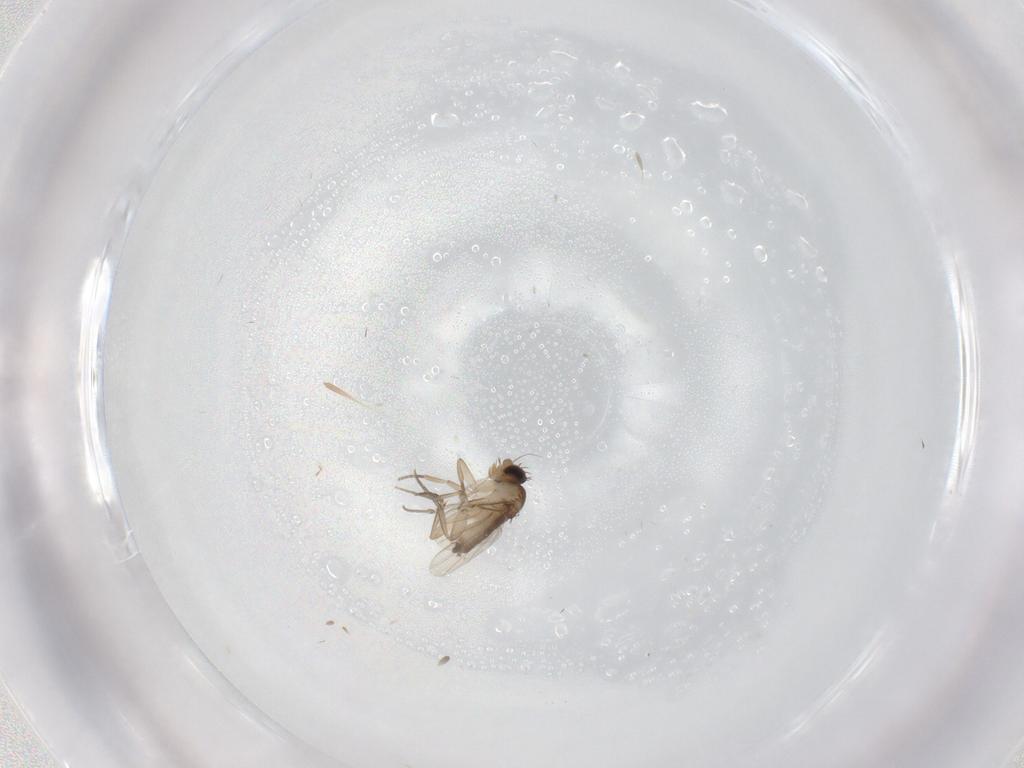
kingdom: Animalia
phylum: Arthropoda
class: Insecta
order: Diptera
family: Phoridae
